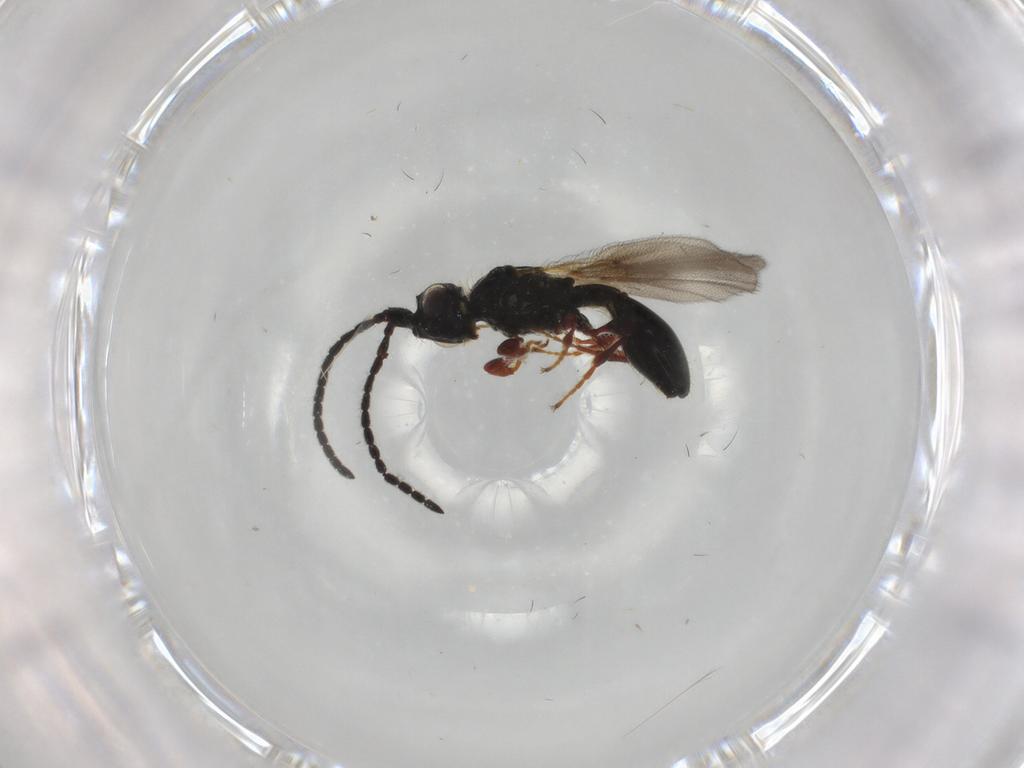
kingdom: Animalia
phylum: Arthropoda
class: Insecta
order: Hymenoptera
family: Diapriidae
